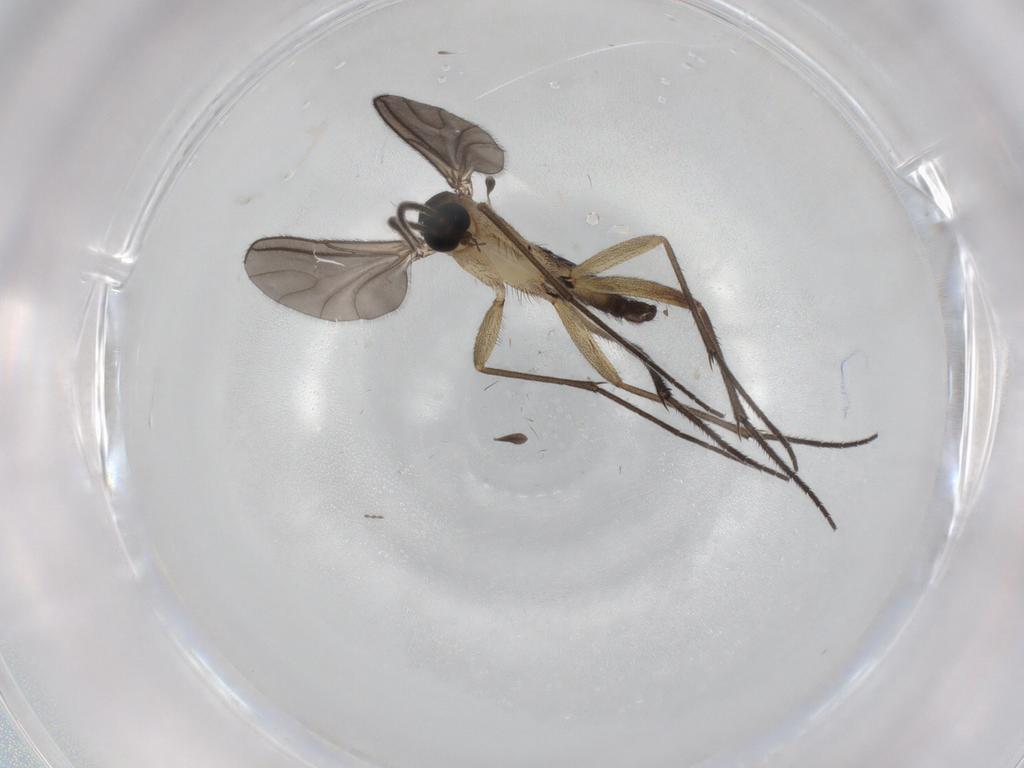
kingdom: Animalia
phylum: Arthropoda
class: Insecta
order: Diptera
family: Sciaridae
